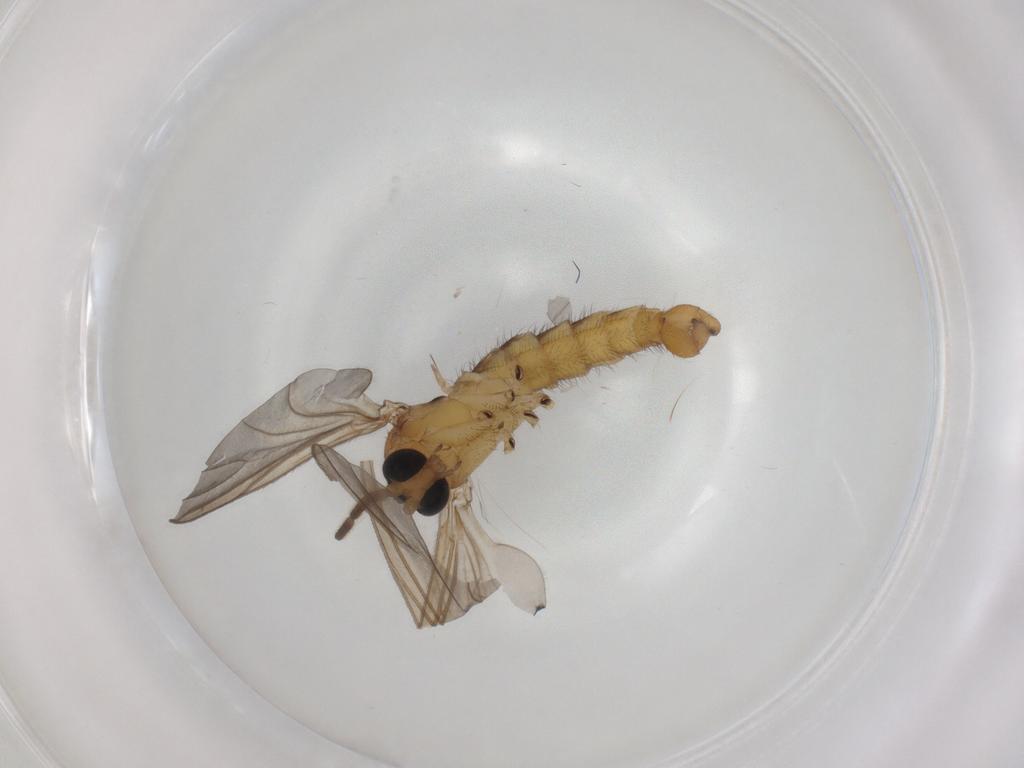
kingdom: Animalia
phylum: Arthropoda
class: Insecta
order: Diptera
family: Sciaridae
